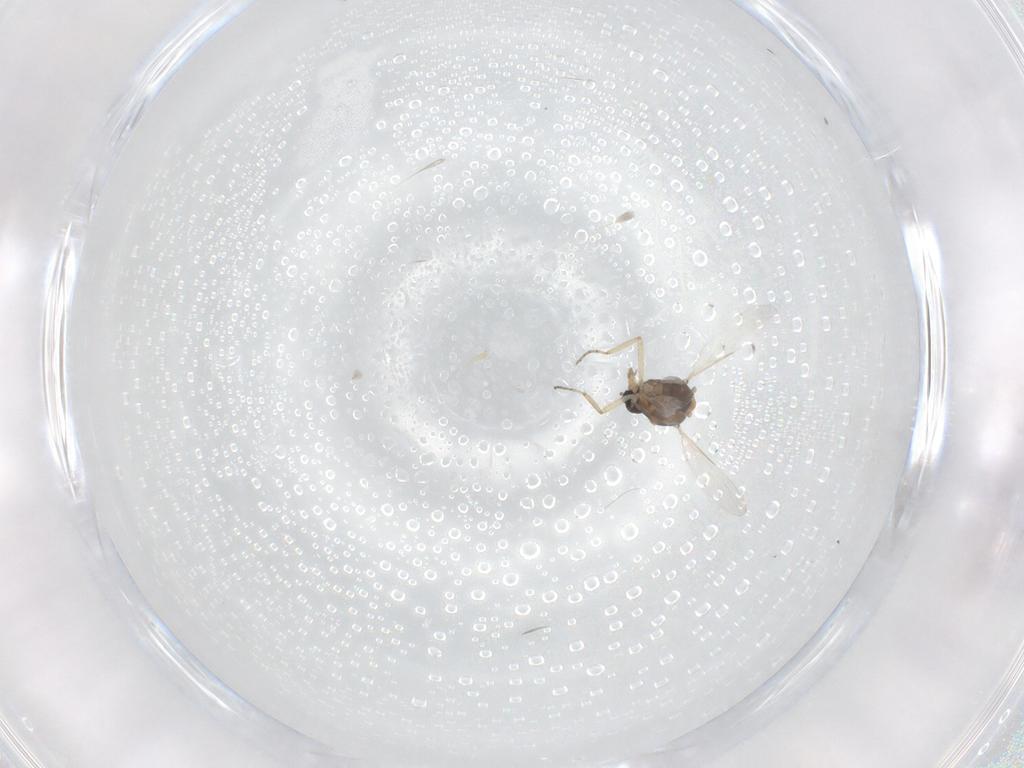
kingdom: Animalia
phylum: Arthropoda
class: Insecta
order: Diptera
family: Ceratopogonidae
